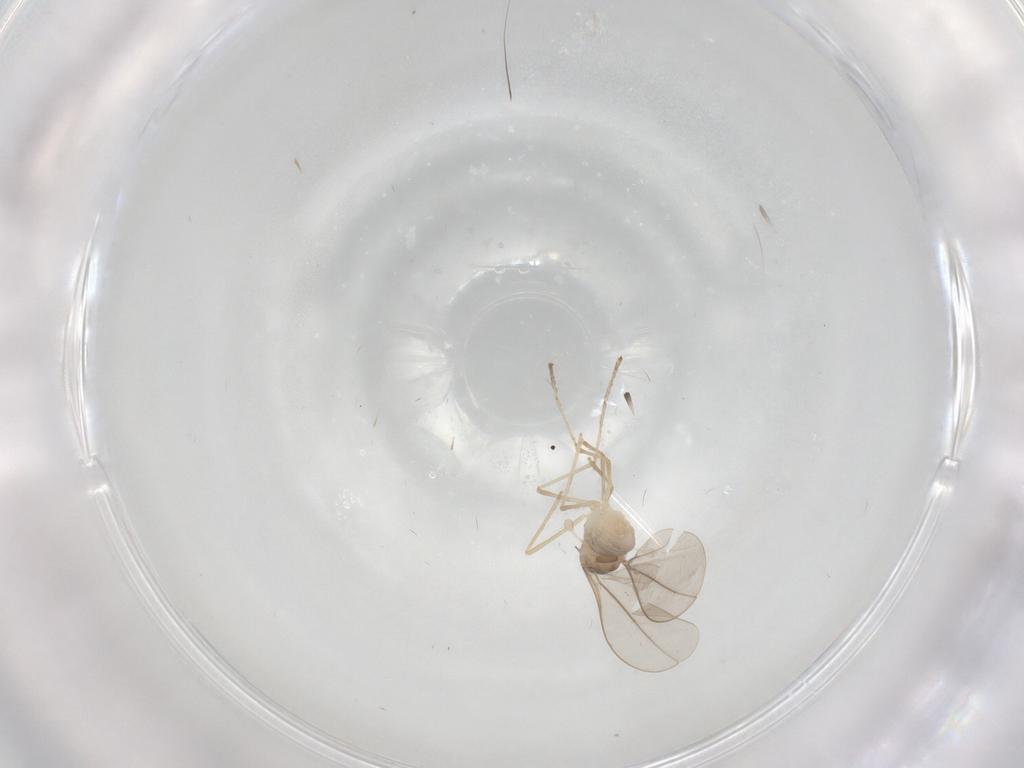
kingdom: Animalia
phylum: Arthropoda
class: Insecta
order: Diptera
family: Cecidomyiidae
